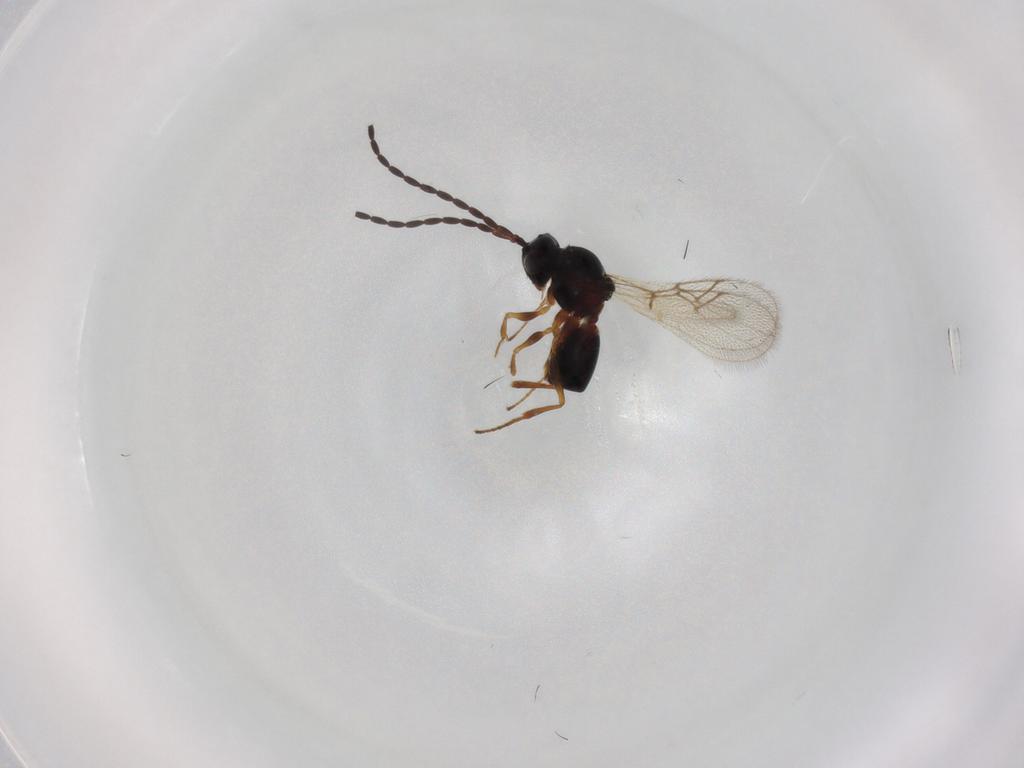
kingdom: Animalia
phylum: Arthropoda
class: Insecta
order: Hymenoptera
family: Figitidae
